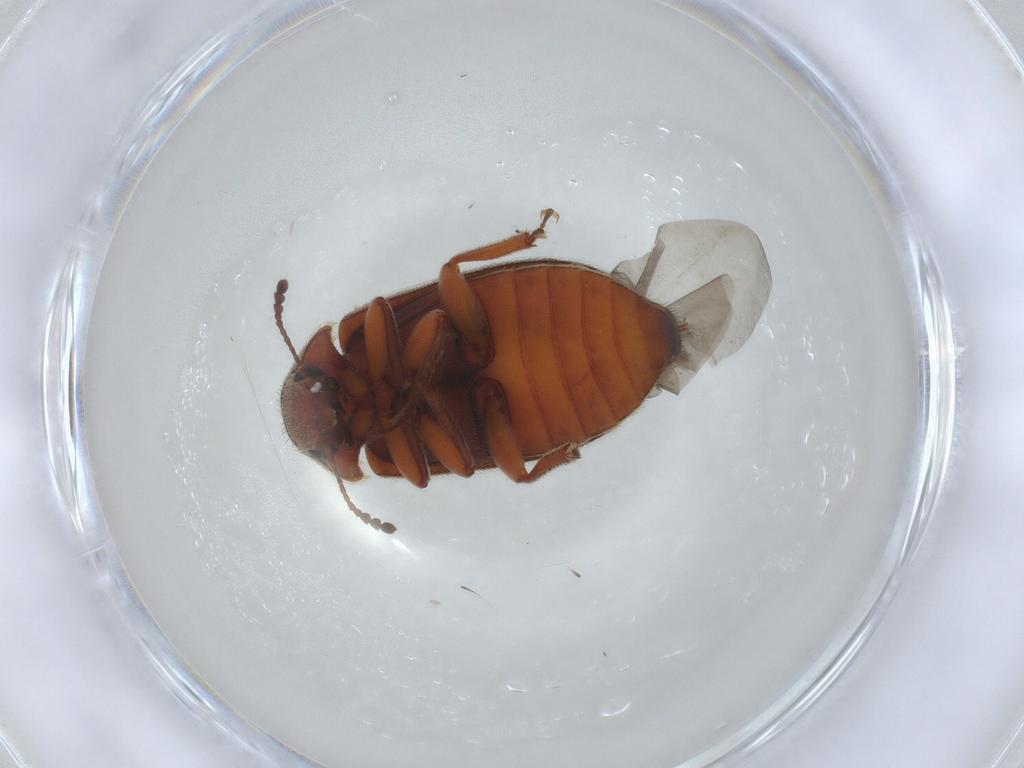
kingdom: Animalia
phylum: Arthropoda
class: Insecta
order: Coleoptera
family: Byturidae
